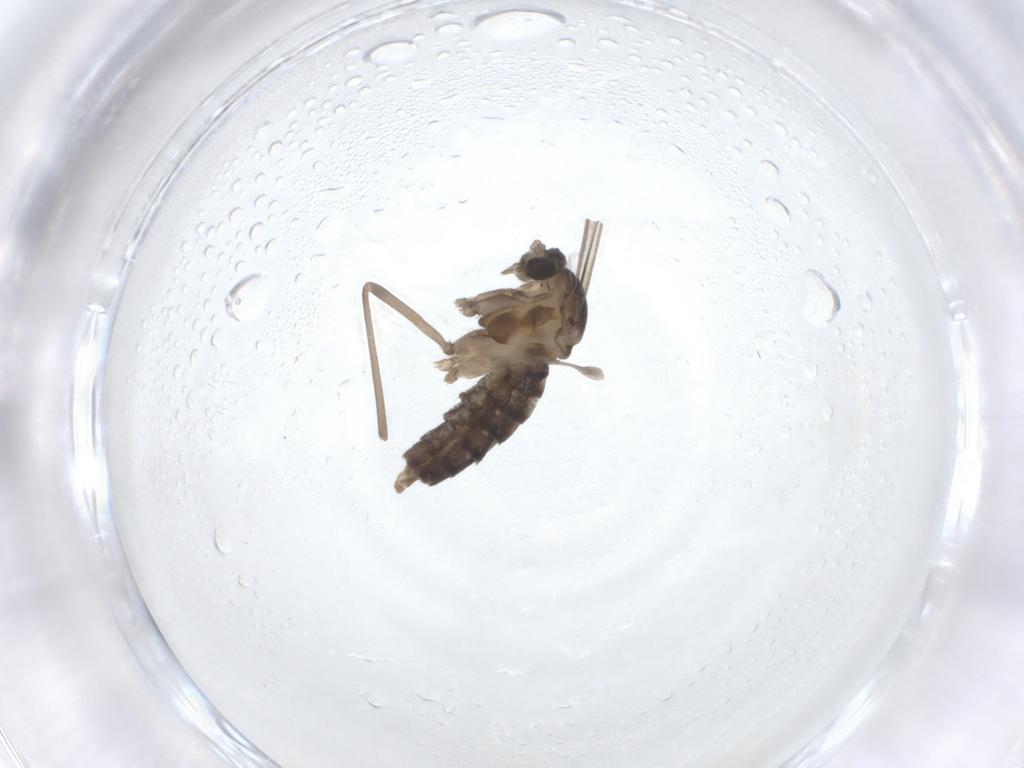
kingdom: Animalia
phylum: Arthropoda
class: Insecta
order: Diptera
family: Cecidomyiidae
